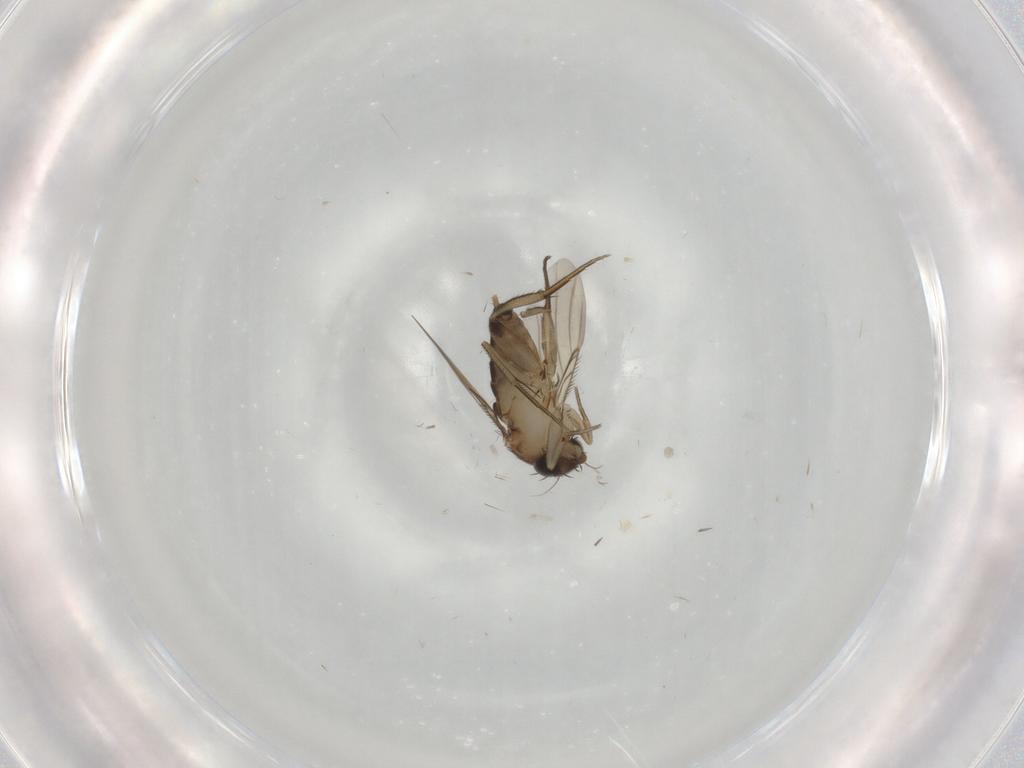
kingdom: Animalia
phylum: Arthropoda
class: Insecta
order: Diptera
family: Phoridae
